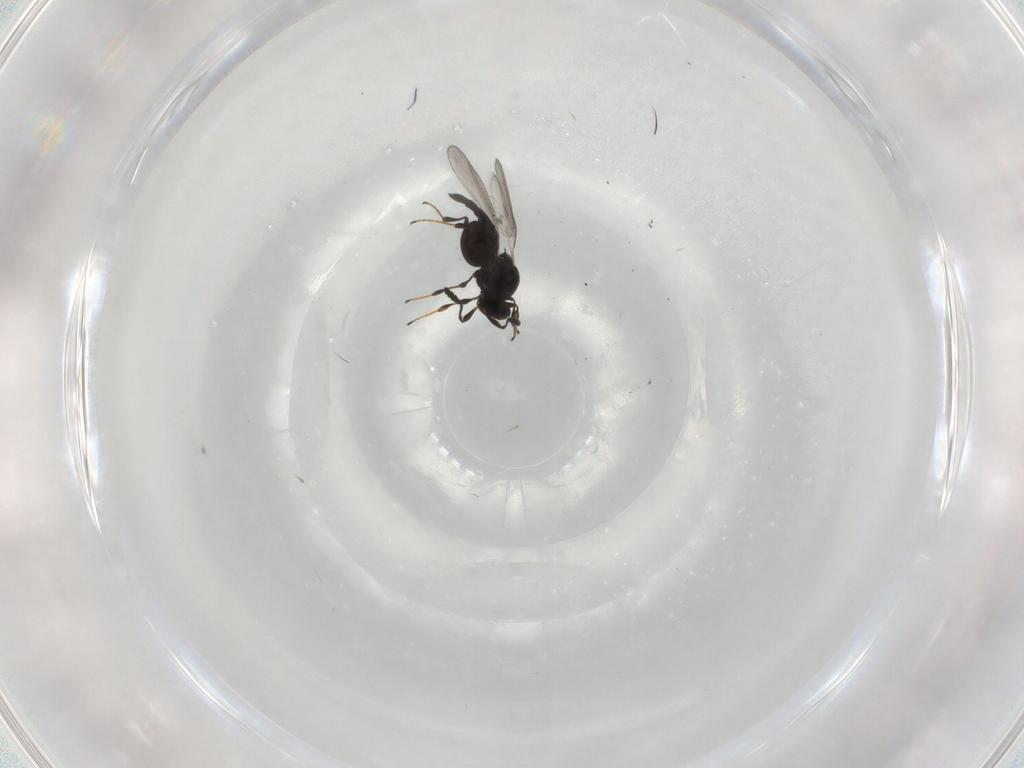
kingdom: Animalia
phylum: Arthropoda
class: Insecta
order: Hymenoptera
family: Platygastridae
